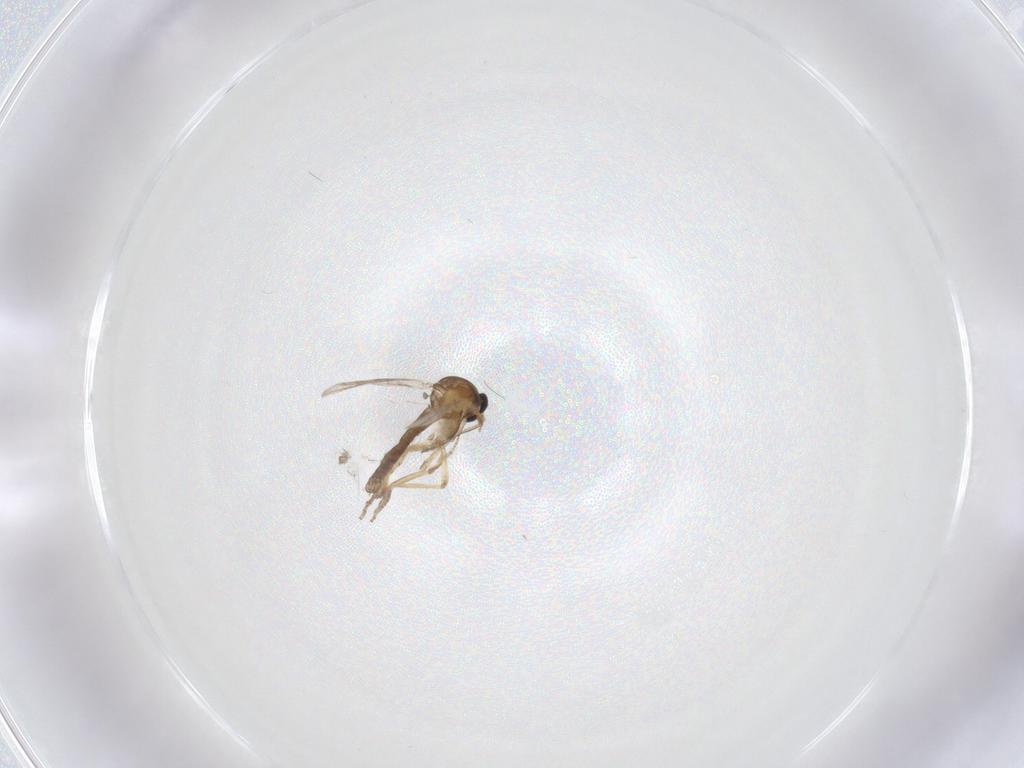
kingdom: Animalia
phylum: Arthropoda
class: Insecta
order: Diptera
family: Ceratopogonidae
